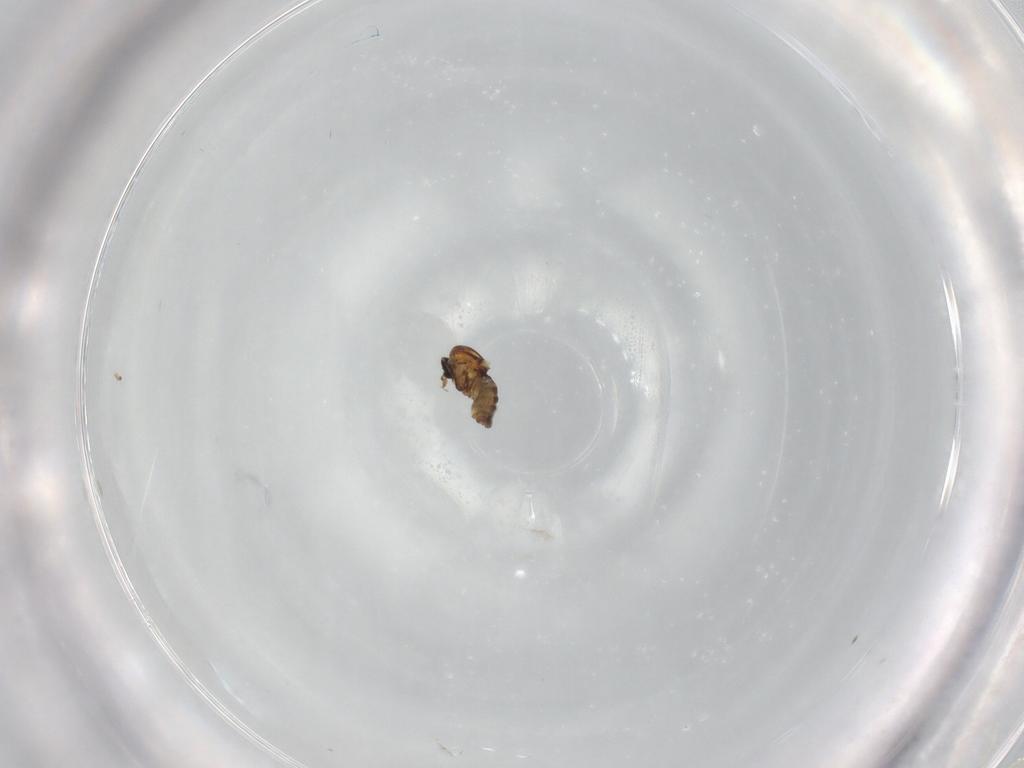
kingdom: Animalia
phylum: Arthropoda
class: Insecta
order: Diptera
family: Ceratopogonidae
